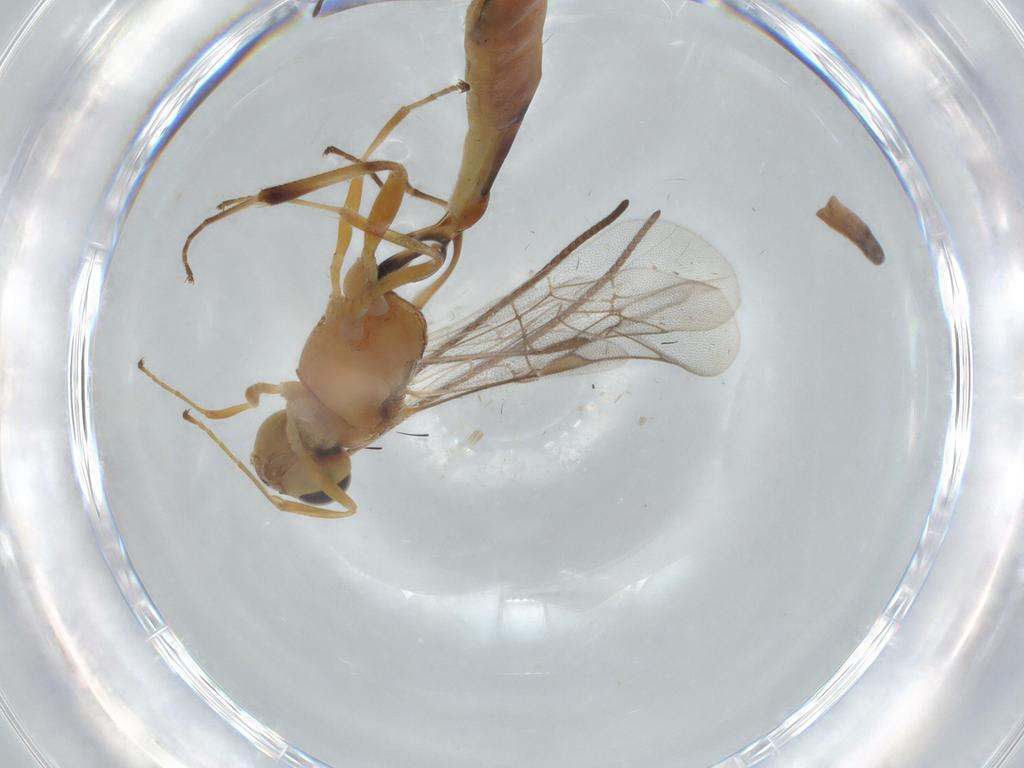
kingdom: Animalia
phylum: Arthropoda
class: Insecta
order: Hymenoptera
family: Ichneumonidae
